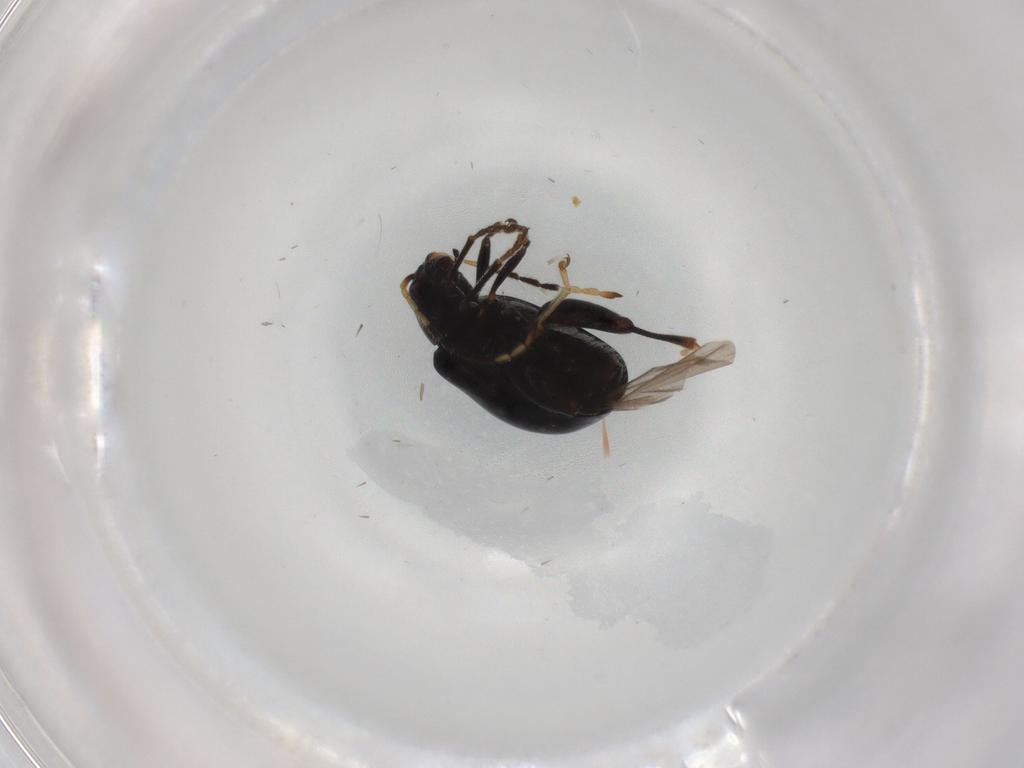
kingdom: Animalia
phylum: Arthropoda
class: Insecta
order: Coleoptera
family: Chrysomelidae
